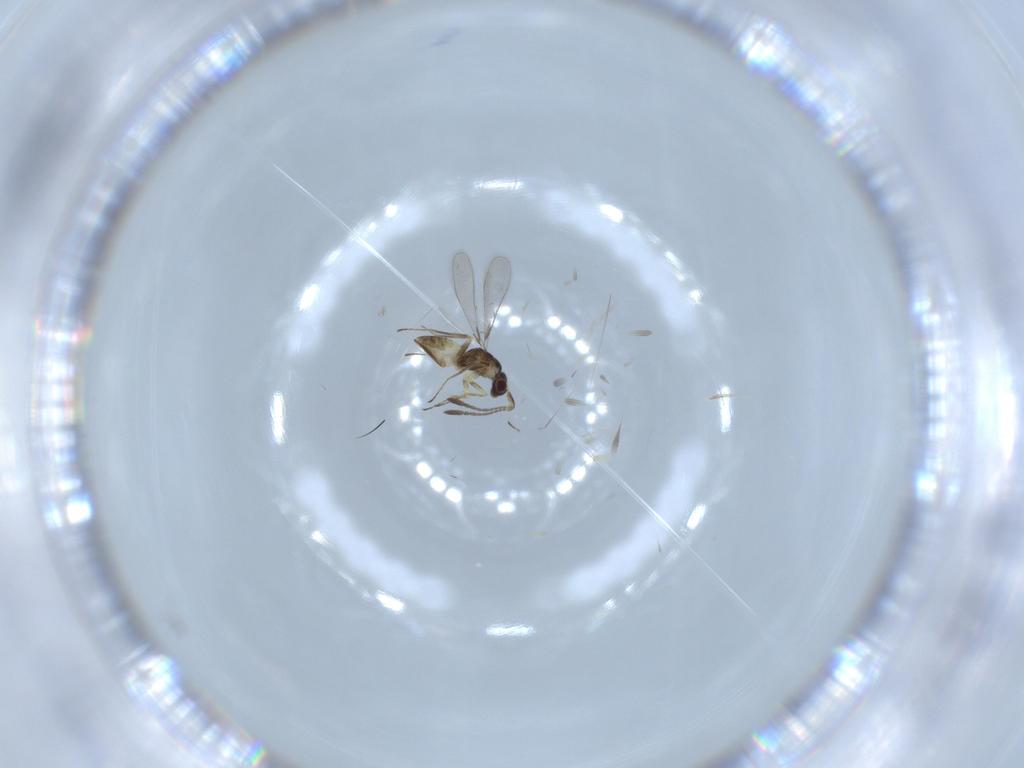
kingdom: Animalia
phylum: Arthropoda
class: Insecta
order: Hymenoptera
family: Mymaridae
